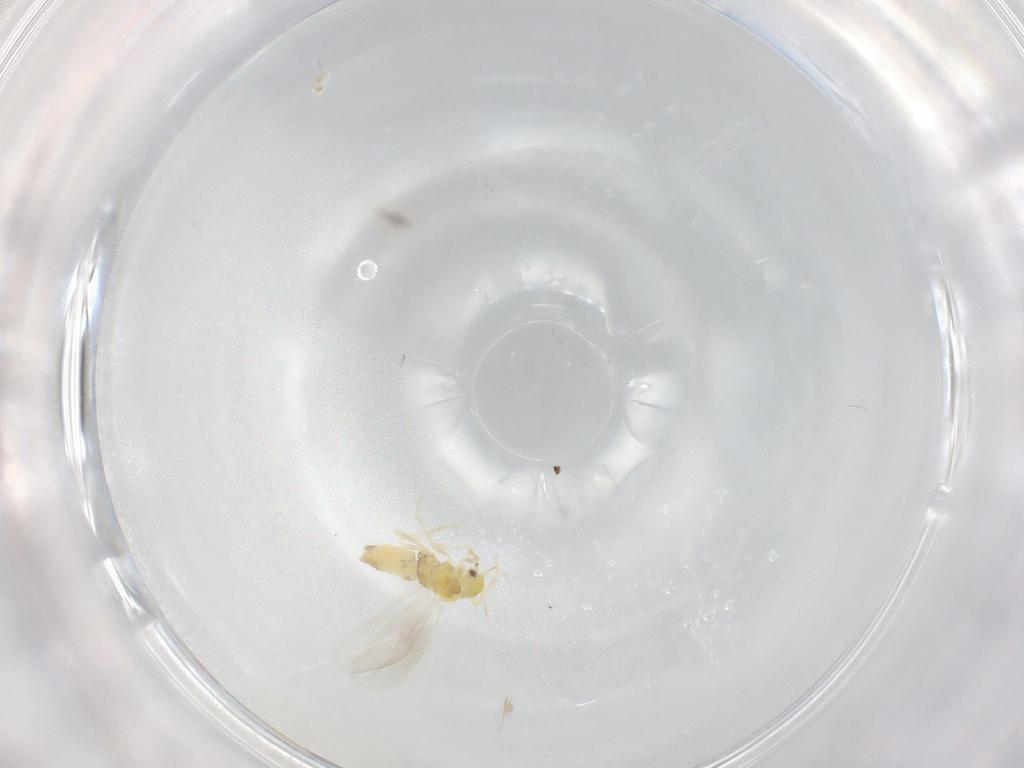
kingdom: Animalia
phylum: Arthropoda
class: Insecta
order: Hemiptera
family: Aleyrodidae
